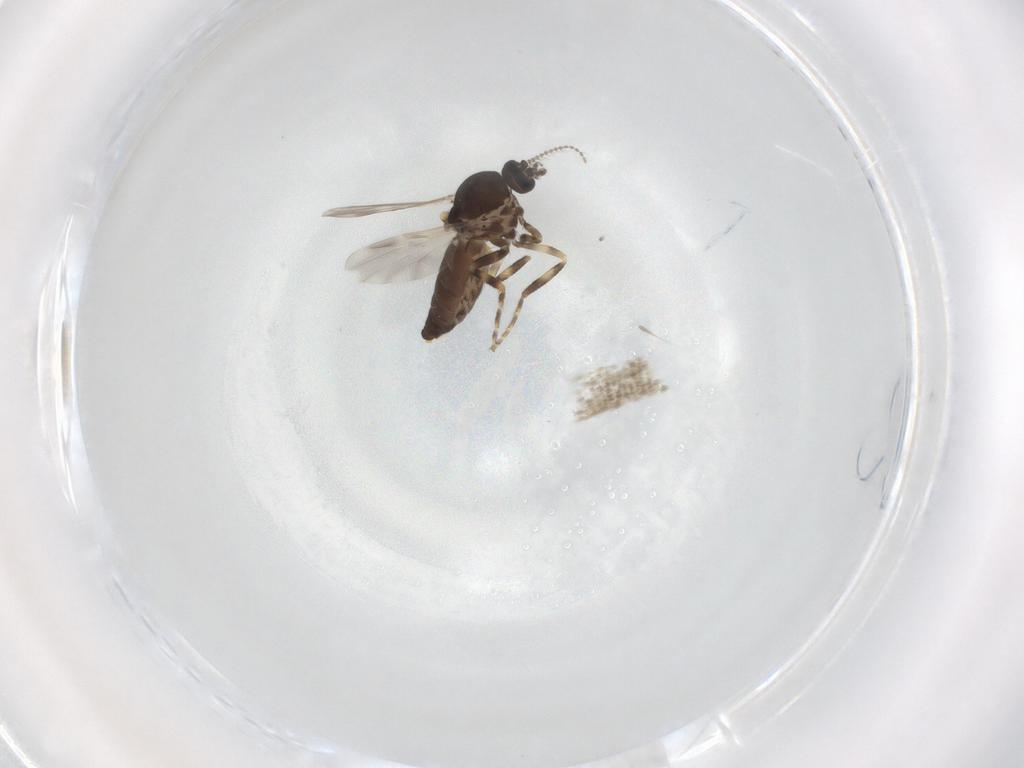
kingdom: Animalia
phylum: Arthropoda
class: Insecta
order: Diptera
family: Ceratopogonidae
